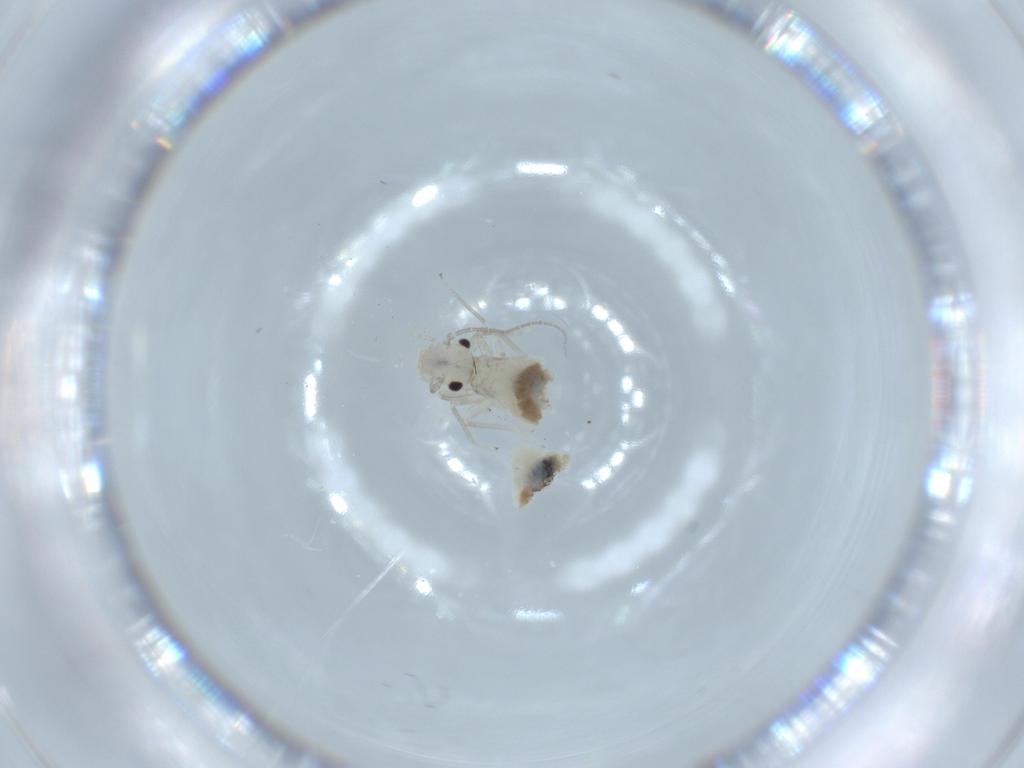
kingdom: Animalia
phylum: Arthropoda
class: Insecta
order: Psocodea
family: Caeciliusidae
